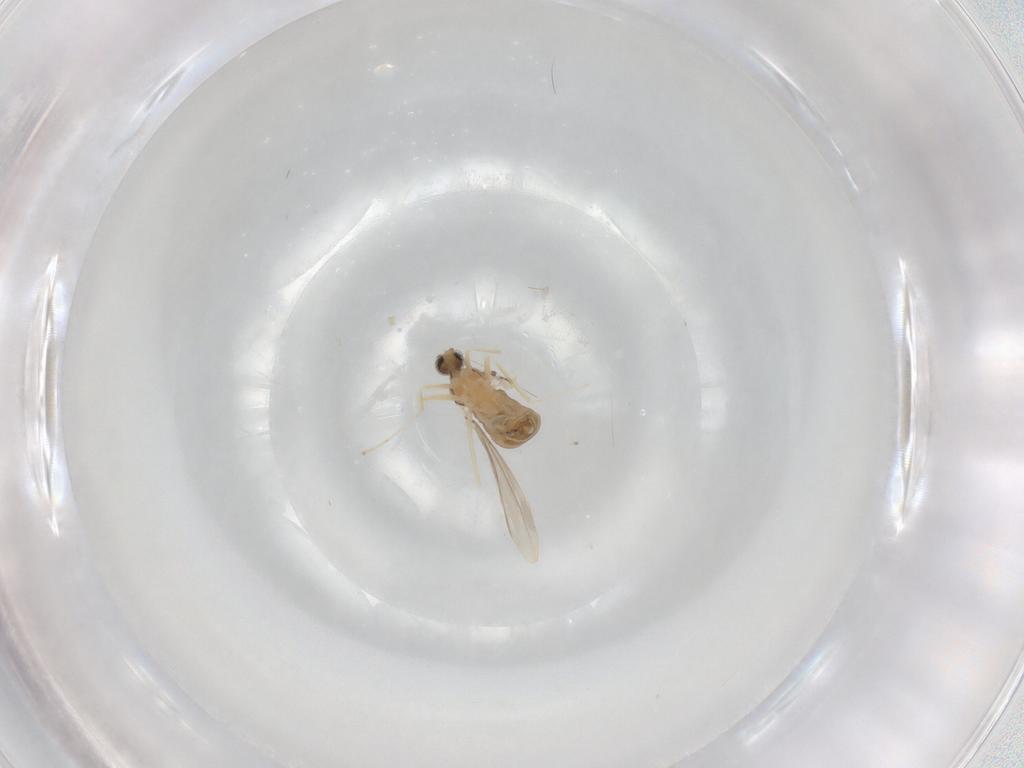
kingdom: Animalia
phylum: Arthropoda
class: Insecta
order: Diptera
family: Cecidomyiidae
